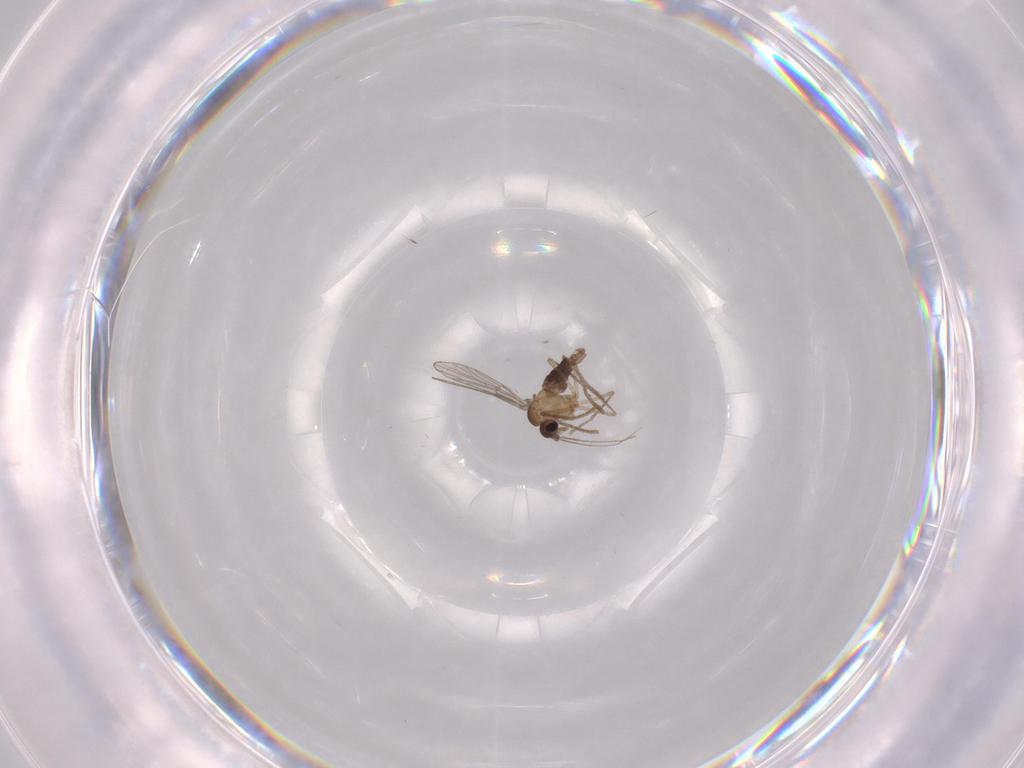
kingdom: Animalia
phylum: Arthropoda
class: Insecta
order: Diptera
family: Psychodidae
